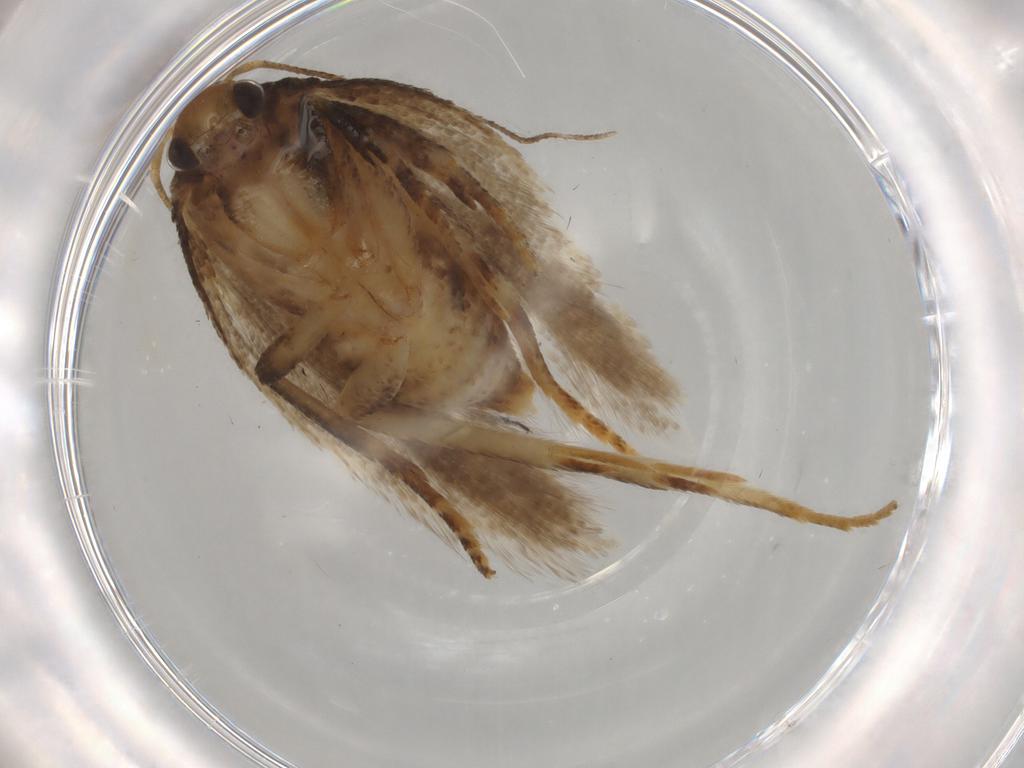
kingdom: Animalia
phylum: Arthropoda
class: Insecta
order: Lepidoptera
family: Gelechiidae
